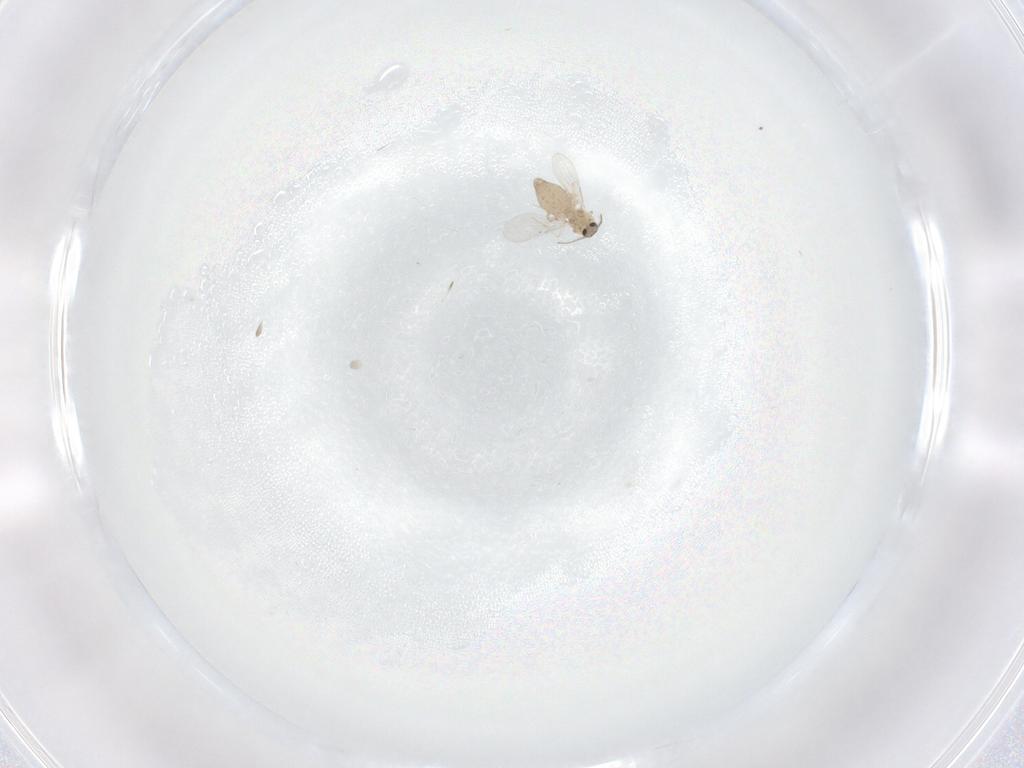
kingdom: Animalia
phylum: Arthropoda
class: Insecta
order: Diptera
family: Ceratopogonidae
